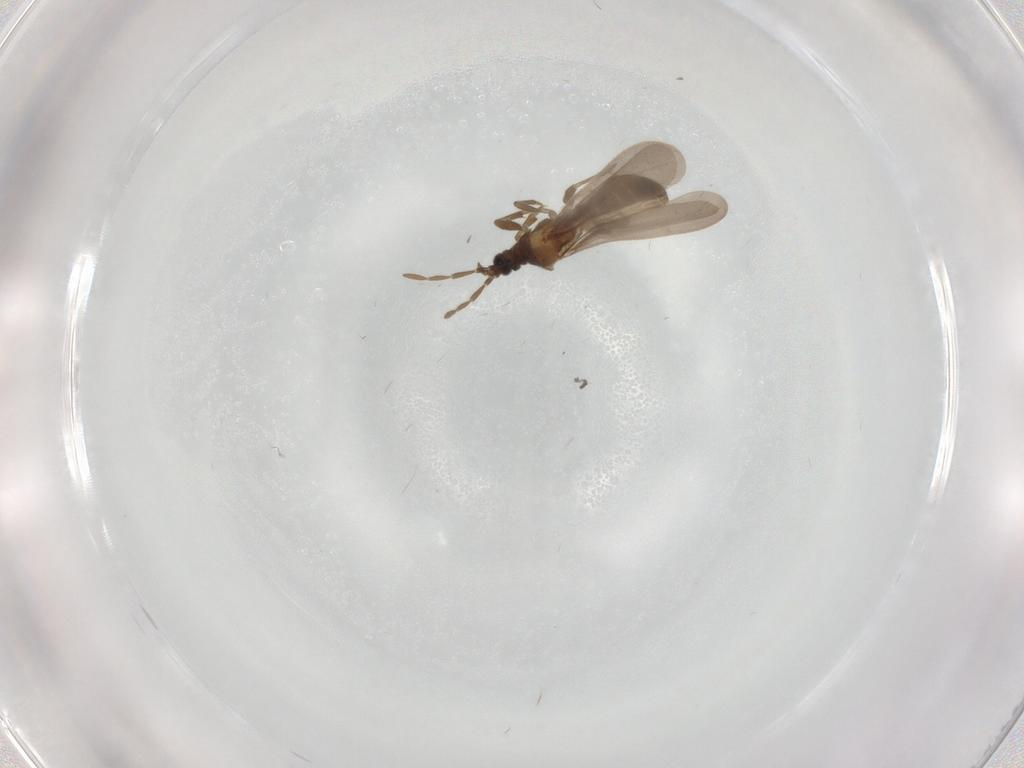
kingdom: Animalia
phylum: Arthropoda
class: Insecta
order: Hemiptera
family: Enicocephalidae
